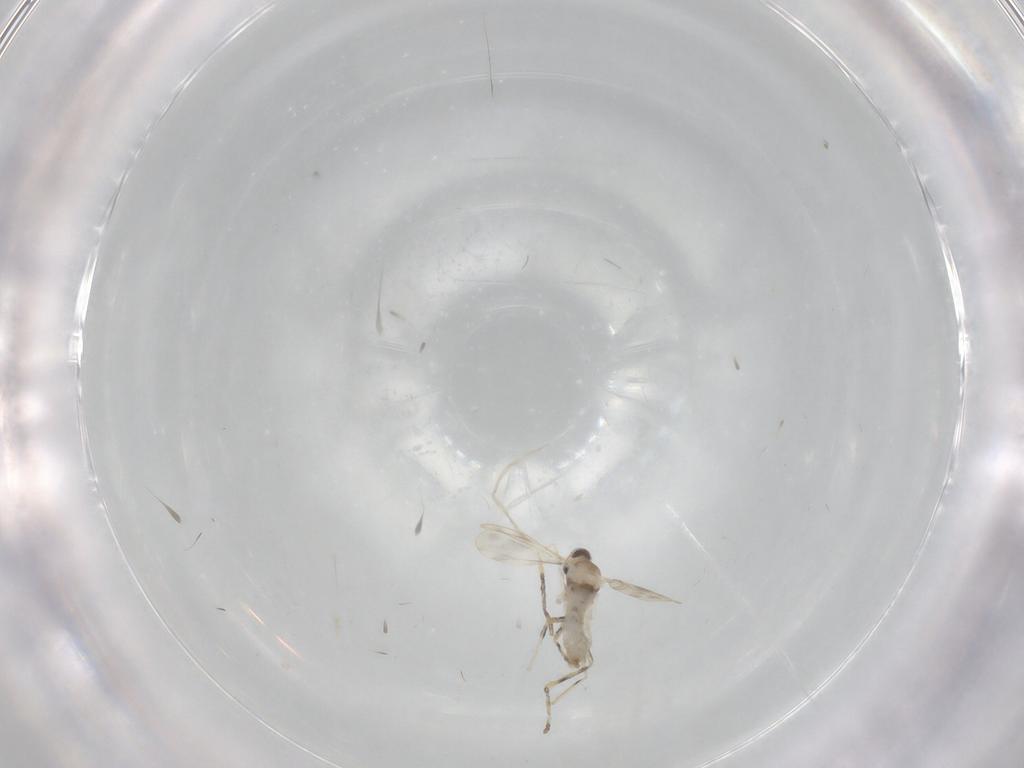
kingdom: Animalia
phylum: Arthropoda
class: Insecta
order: Diptera
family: Cecidomyiidae
